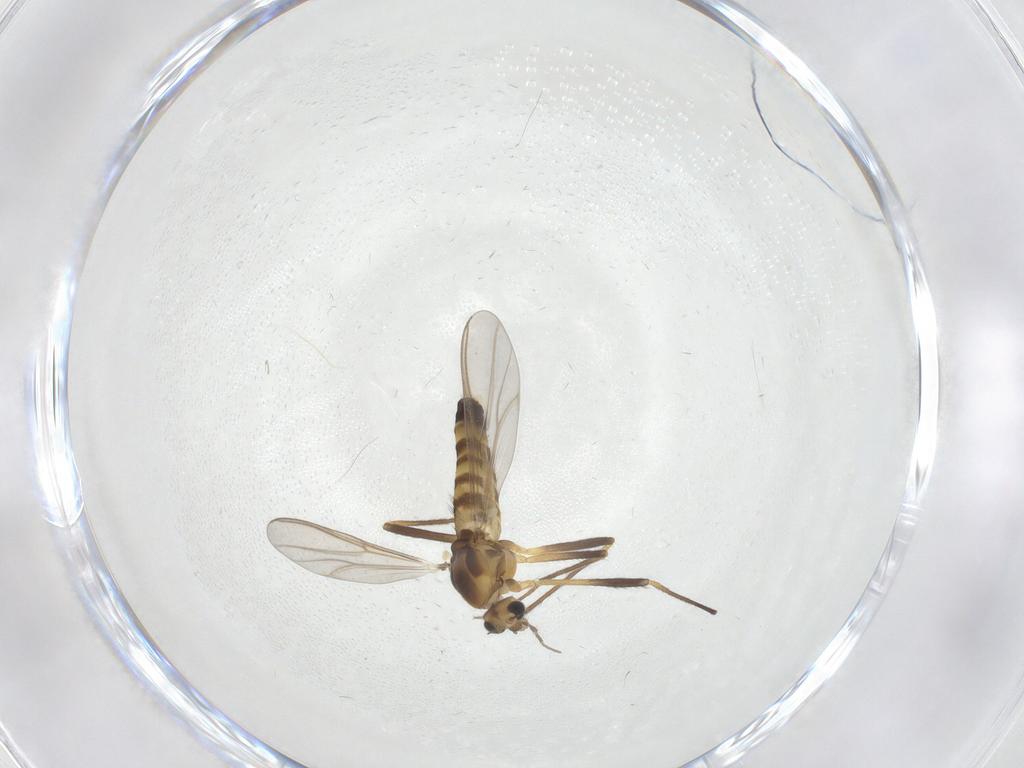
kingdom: Animalia
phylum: Arthropoda
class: Insecta
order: Diptera
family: Chironomidae
